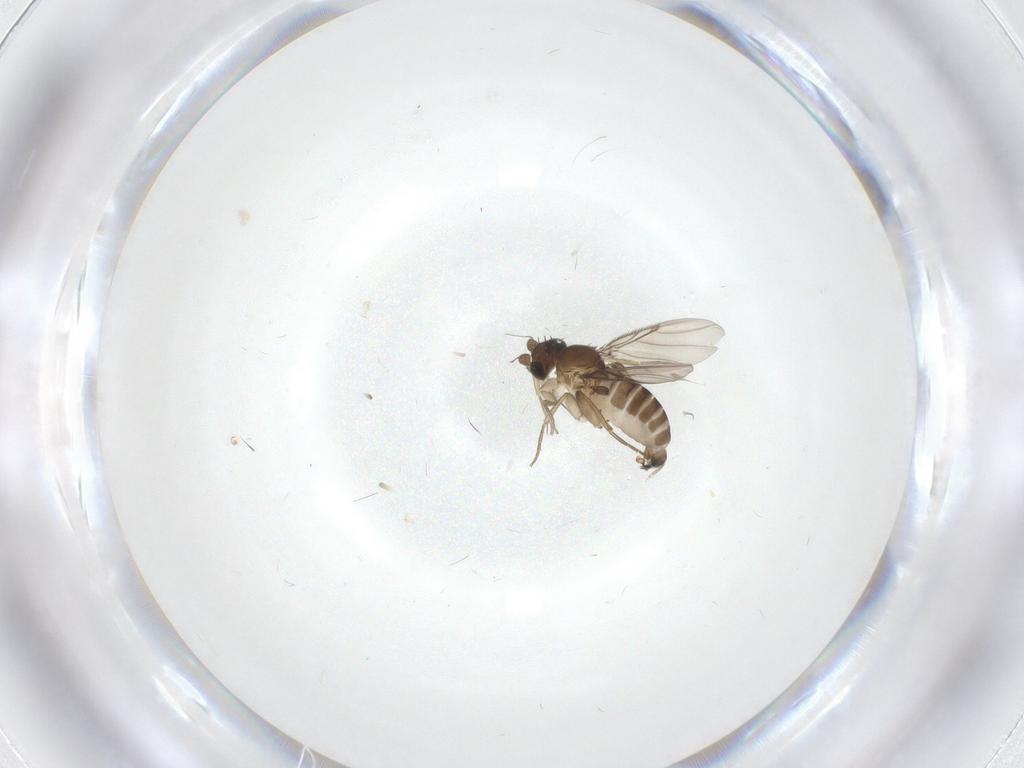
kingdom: Animalia
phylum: Arthropoda
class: Insecta
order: Diptera
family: Phoridae
